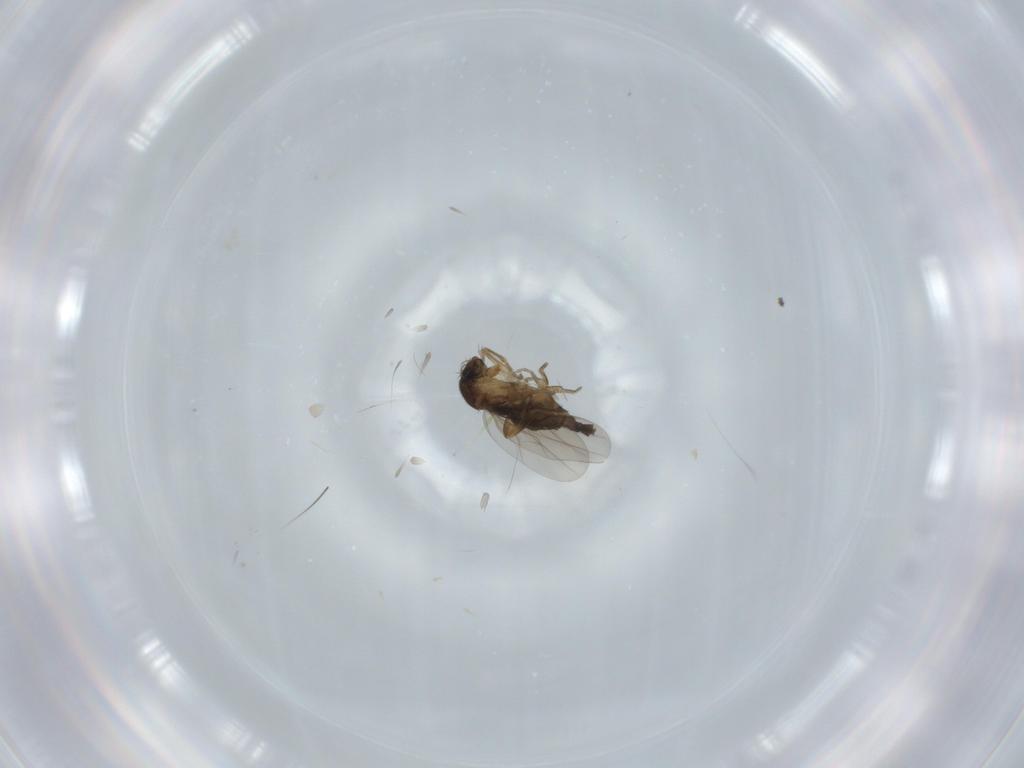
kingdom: Animalia
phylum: Arthropoda
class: Insecta
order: Diptera
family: Phoridae
